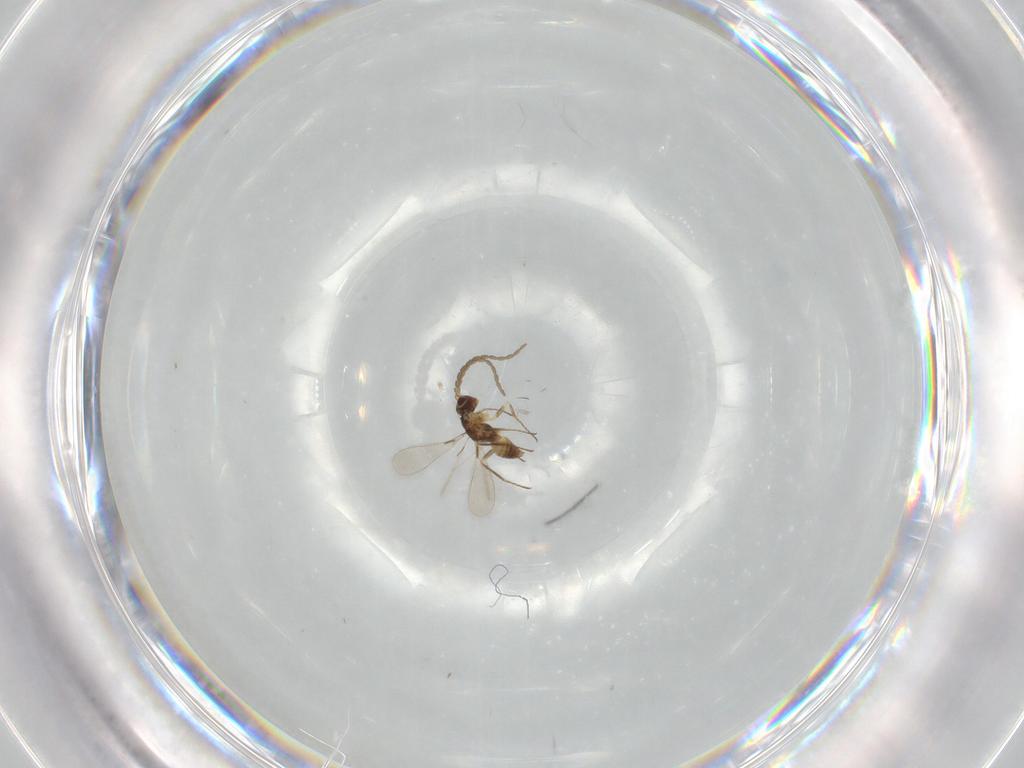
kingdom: Animalia
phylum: Arthropoda
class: Insecta
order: Hymenoptera
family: Mymaridae
